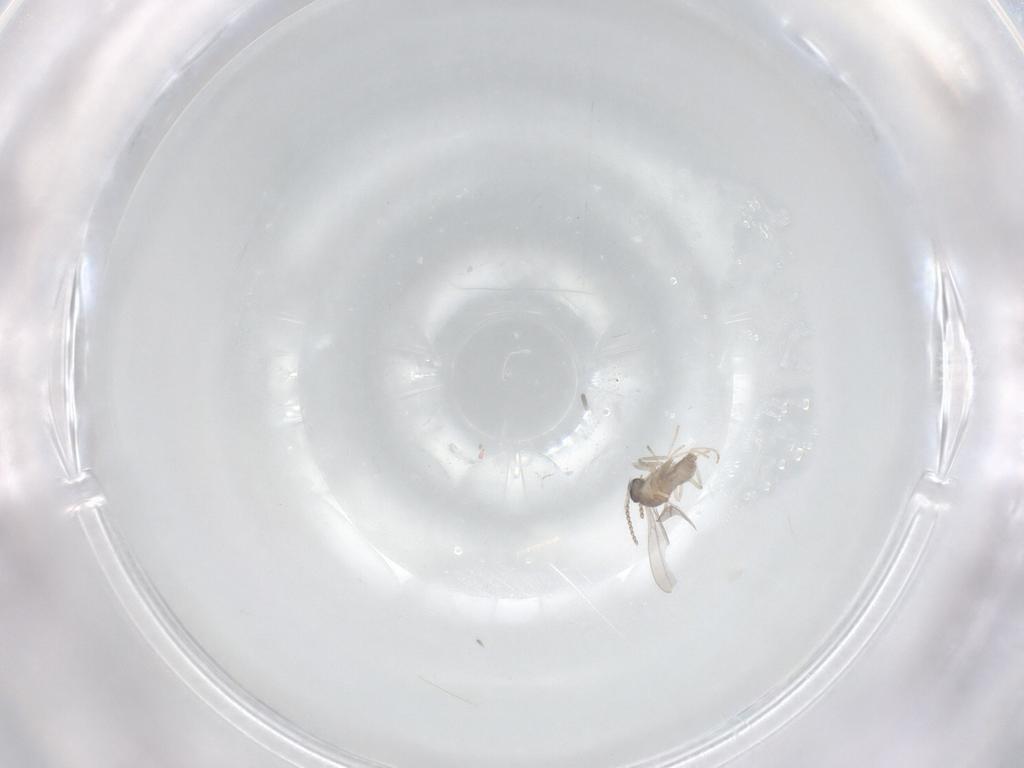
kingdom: Animalia
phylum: Arthropoda
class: Insecta
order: Diptera
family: Cecidomyiidae
